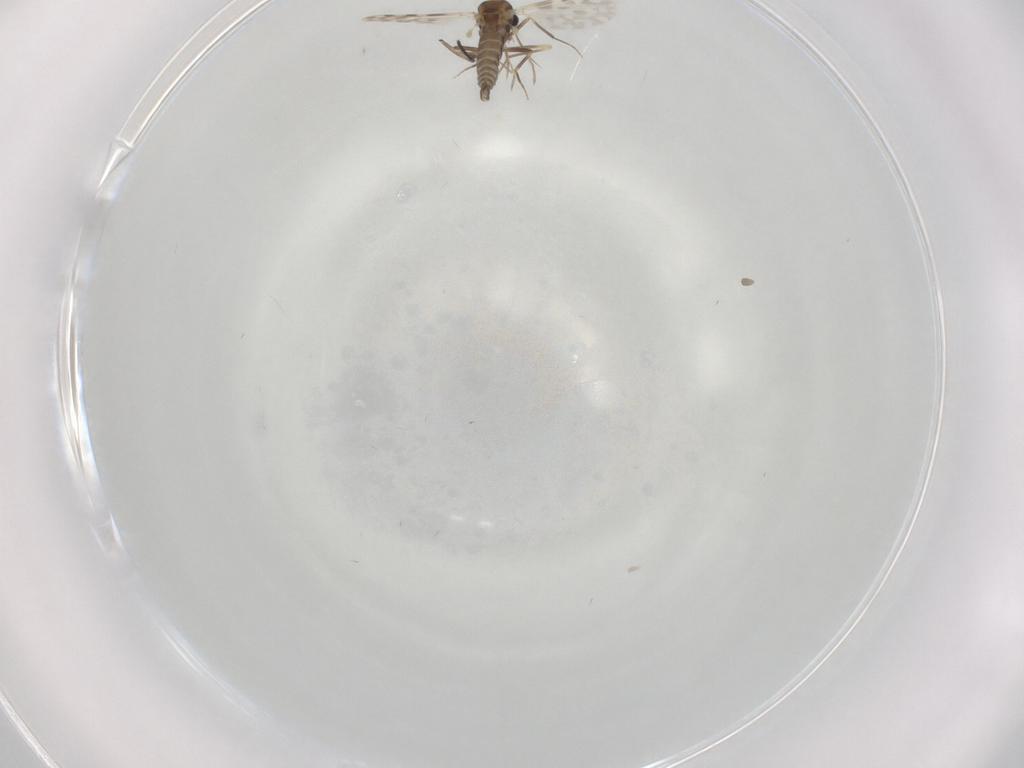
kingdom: Animalia
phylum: Arthropoda
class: Insecta
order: Diptera
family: Ceratopogonidae
